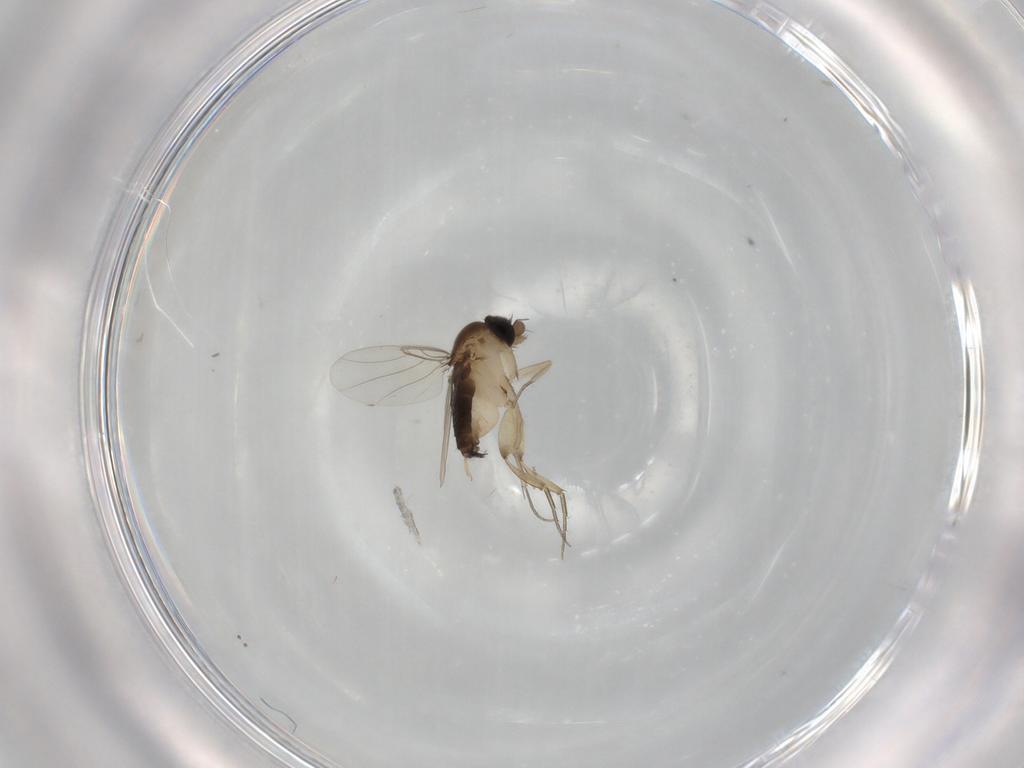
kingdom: Animalia
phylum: Arthropoda
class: Insecta
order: Diptera
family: Phoridae
